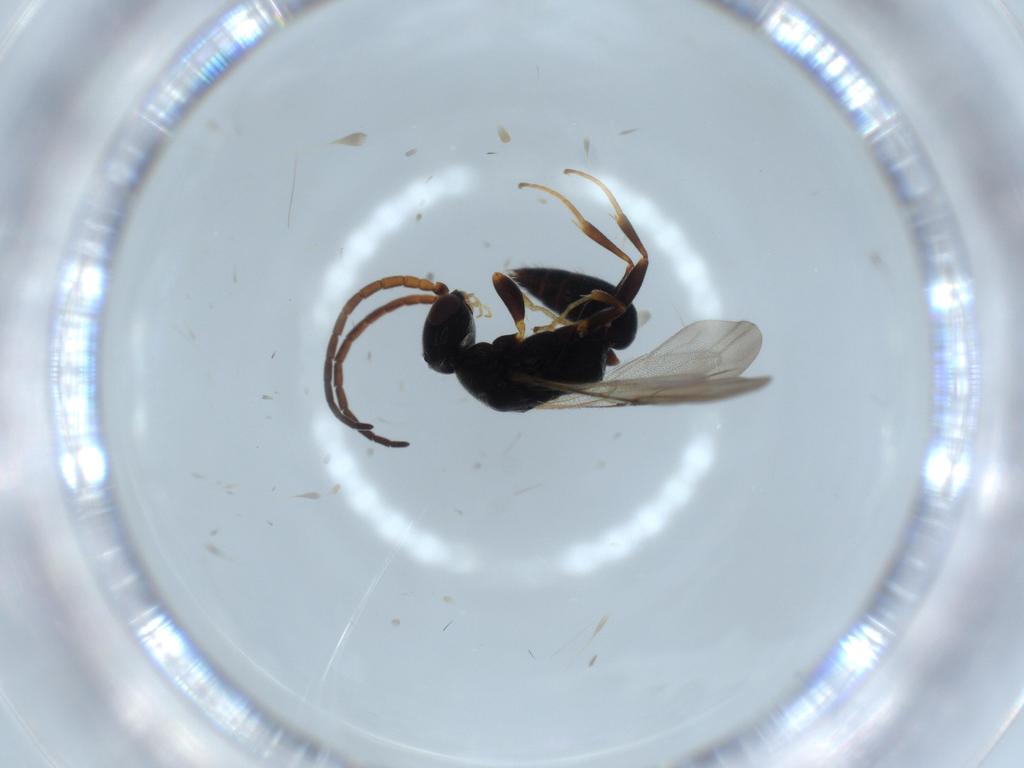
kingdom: Animalia
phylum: Arthropoda
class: Insecta
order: Hymenoptera
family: Bethylidae
